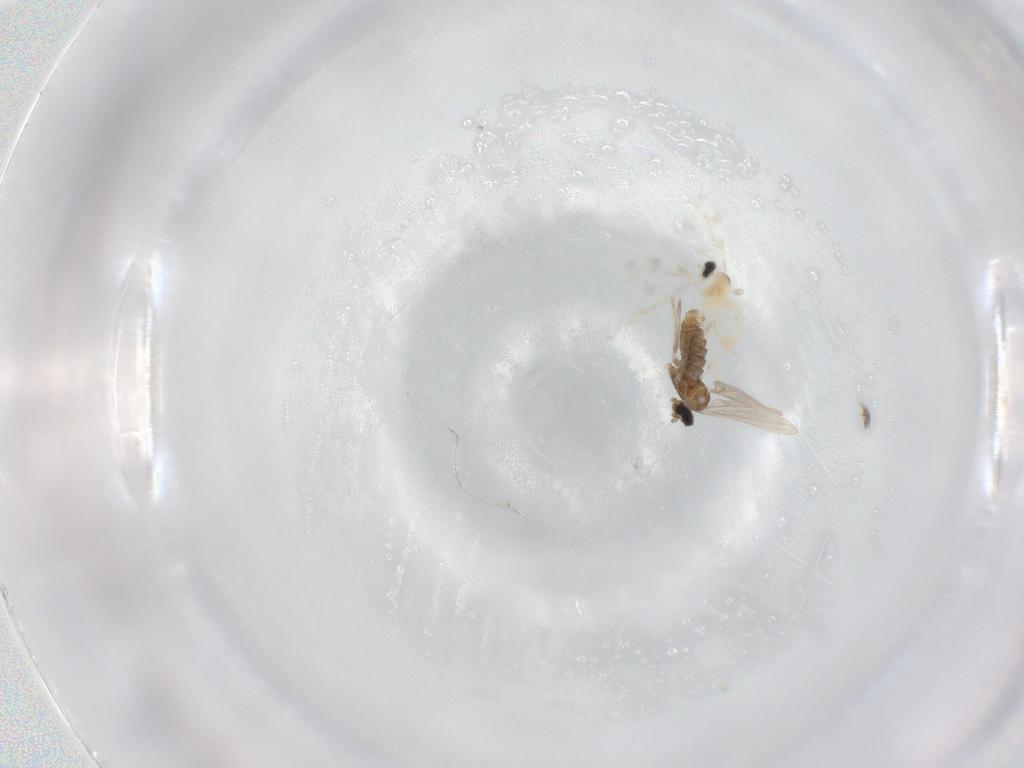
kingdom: Animalia
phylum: Arthropoda
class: Insecta
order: Diptera
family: Cecidomyiidae
